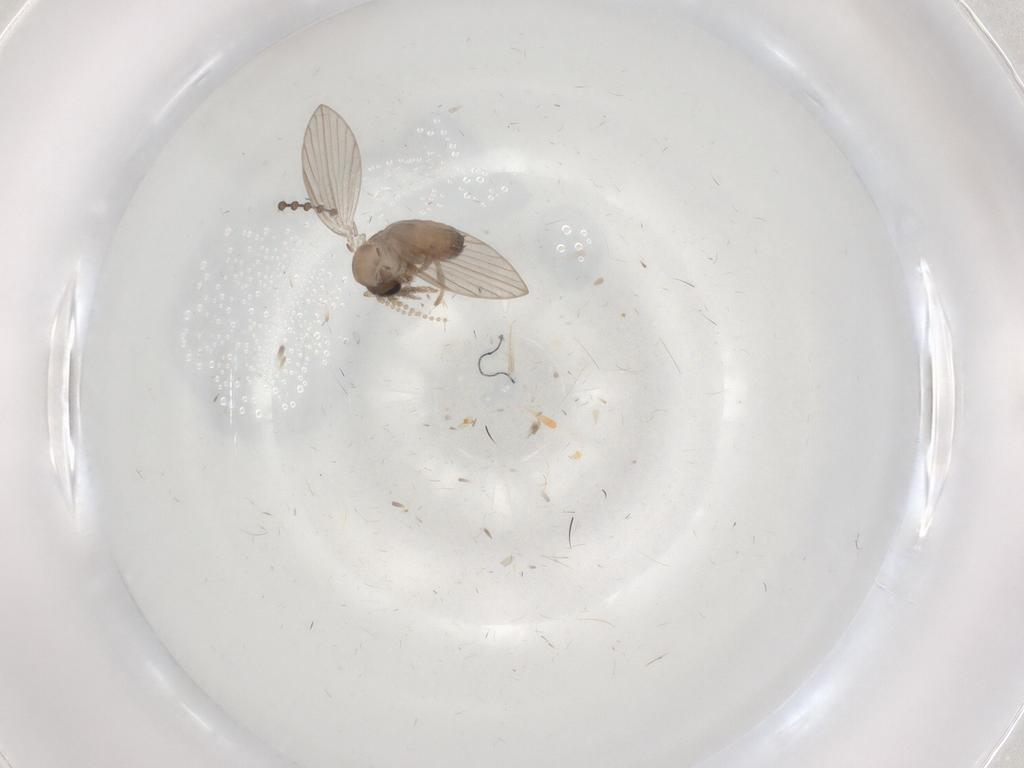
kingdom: Animalia
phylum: Arthropoda
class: Insecta
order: Diptera
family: Psychodidae
